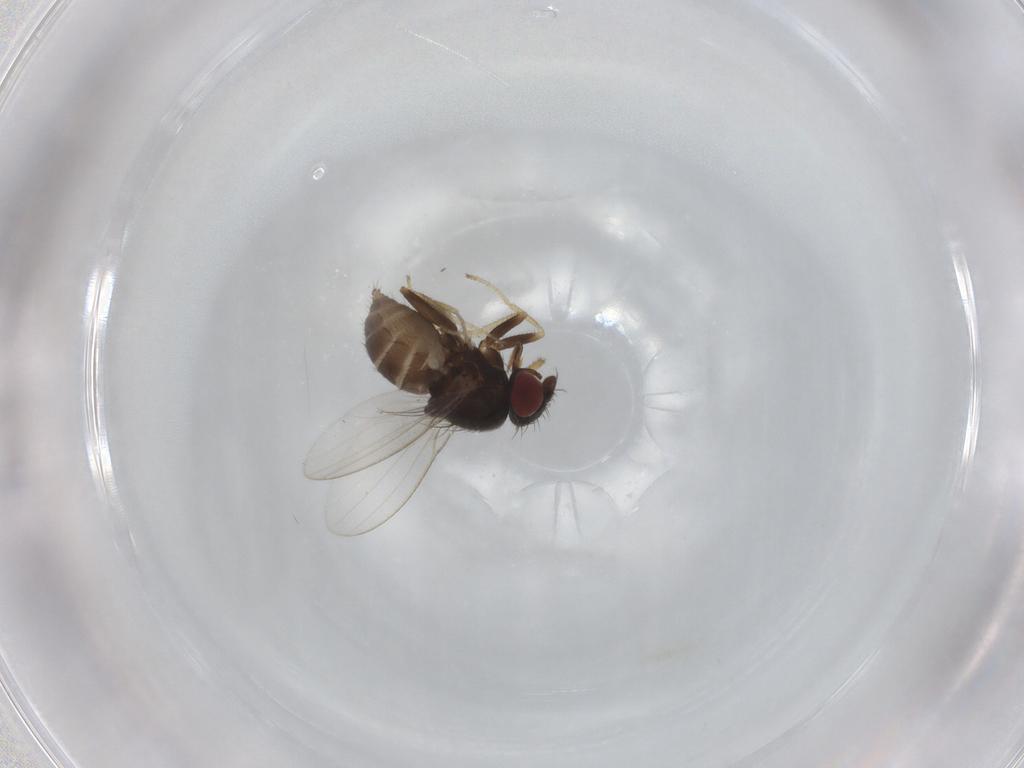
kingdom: Animalia
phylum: Arthropoda
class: Insecta
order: Diptera
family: Milichiidae
